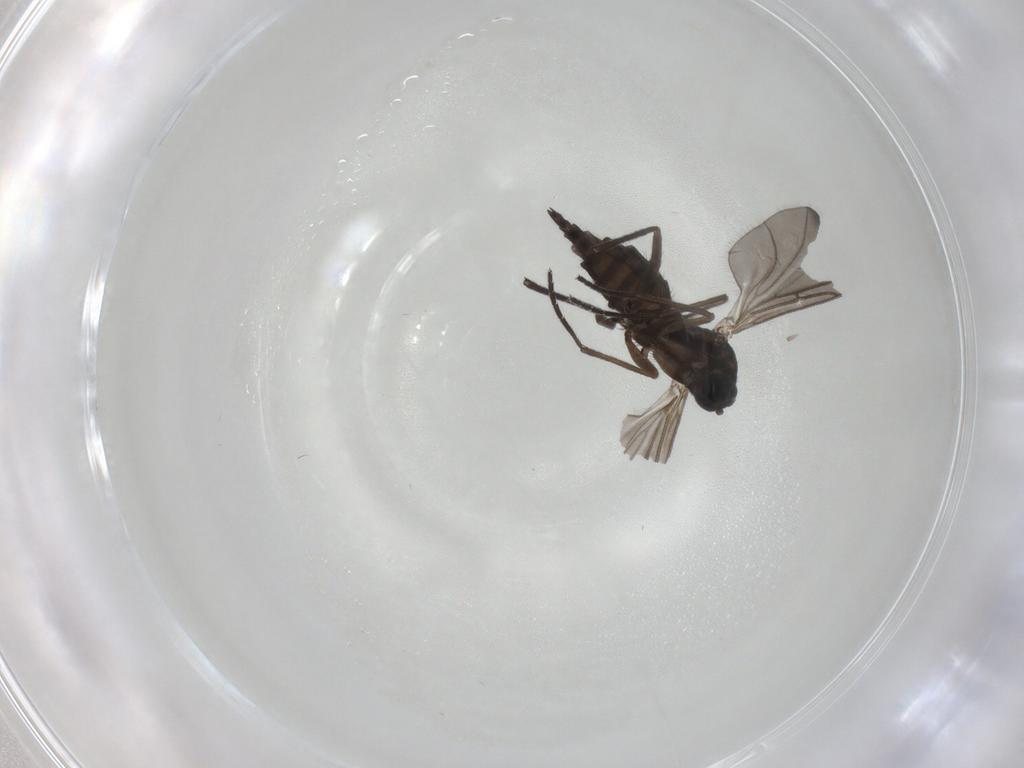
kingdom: Animalia
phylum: Arthropoda
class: Insecta
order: Diptera
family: Sciaridae
